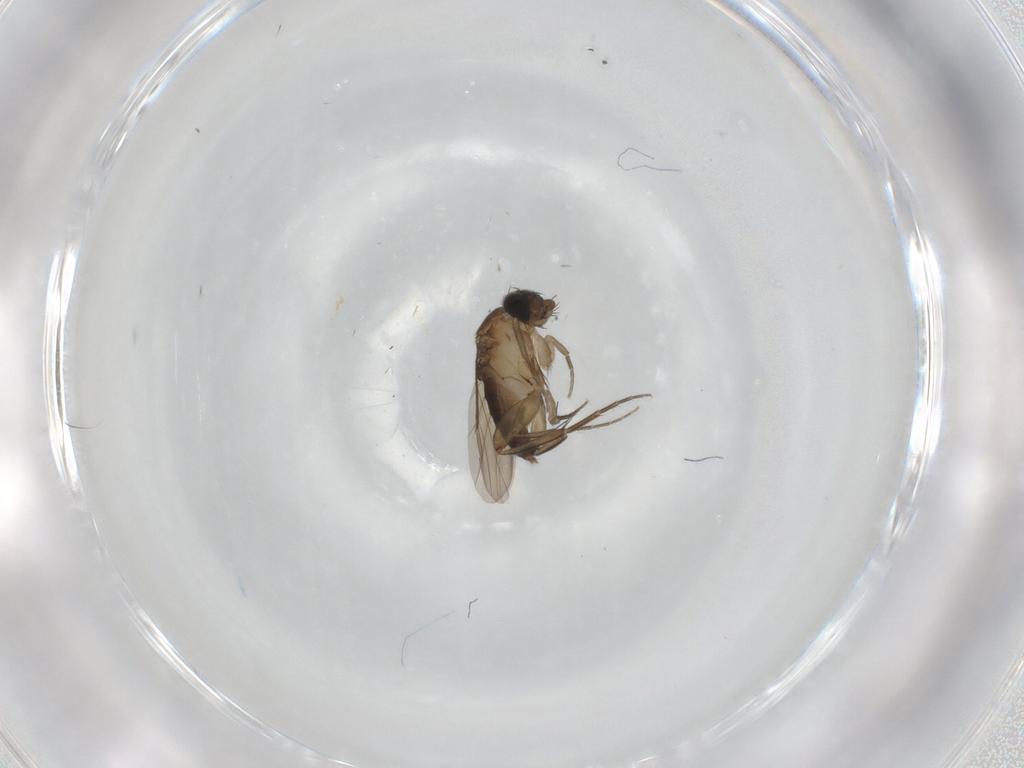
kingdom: Animalia
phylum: Arthropoda
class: Insecta
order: Diptera
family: Phoridae
